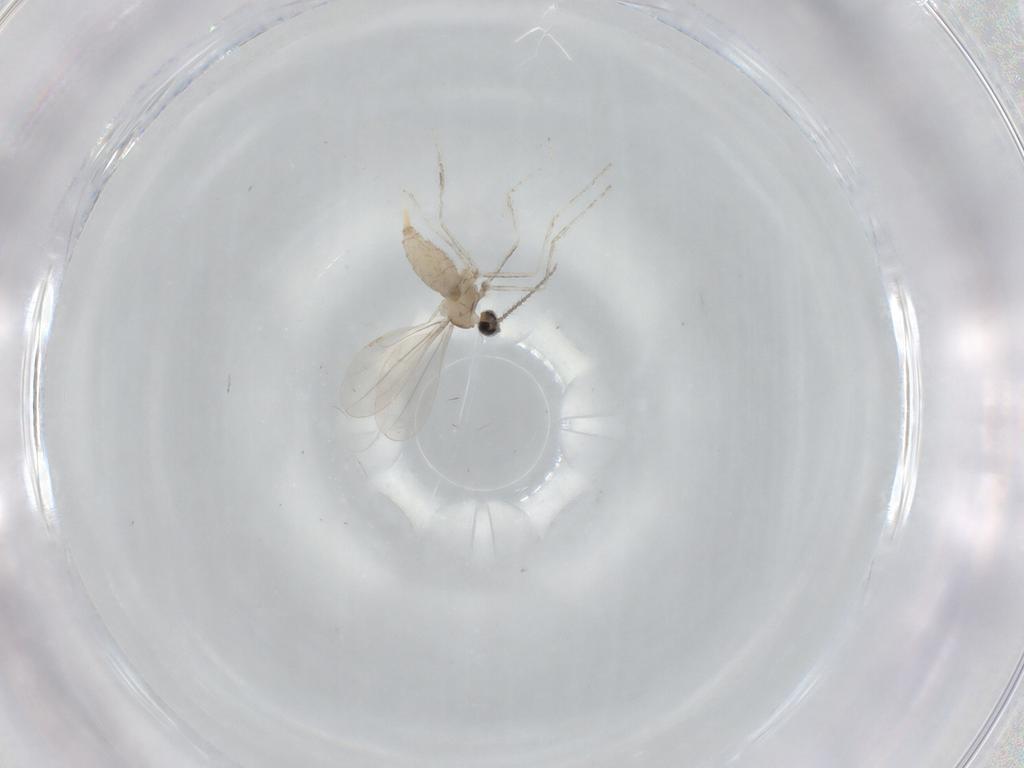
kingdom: Animalia
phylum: Arthropoda
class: Insecta
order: Diptera
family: Cecidomyiidae
